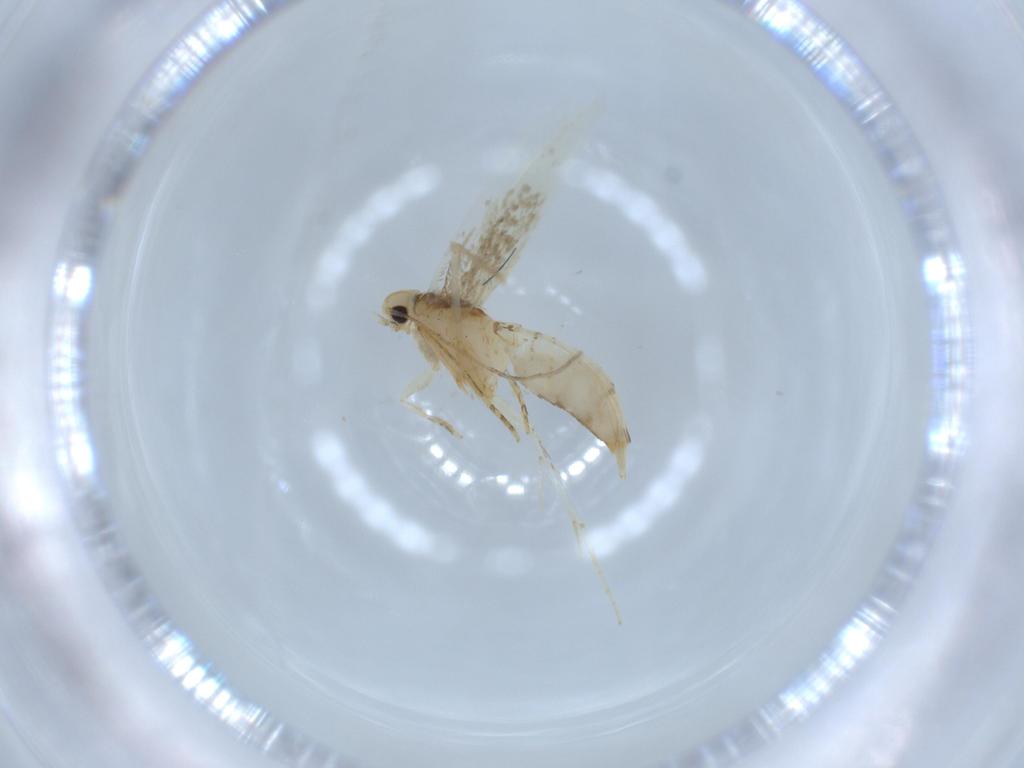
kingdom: Animalia
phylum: Arthropoda
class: Insecta
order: Lepidoptera
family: Tineidae
